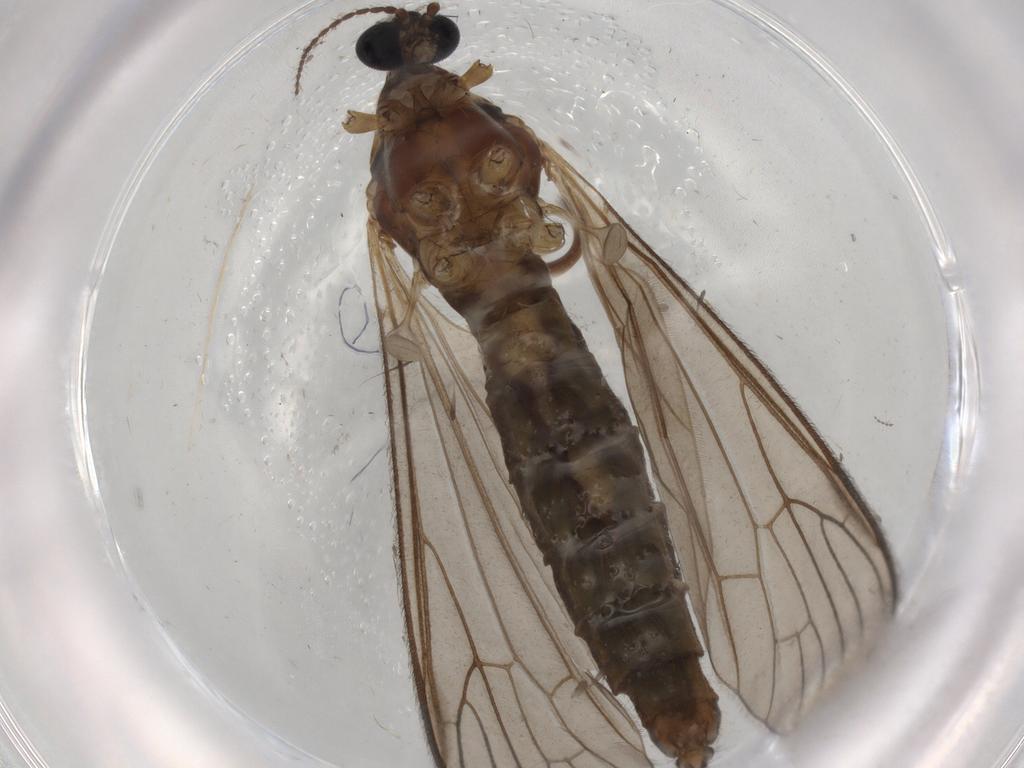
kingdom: Animalia
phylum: Arthropoda
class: Insecta
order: Diptera
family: Cecidomyiidae
